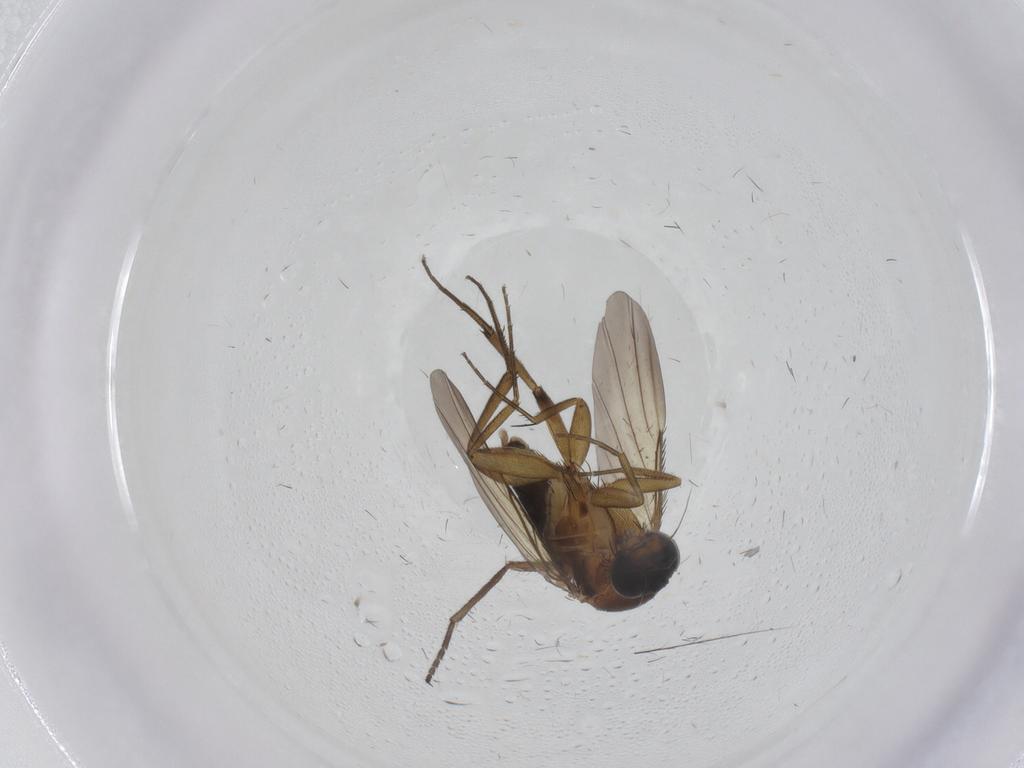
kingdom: Animalia
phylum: Arthropoda
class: Insecta
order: Diptera
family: Phoridae
